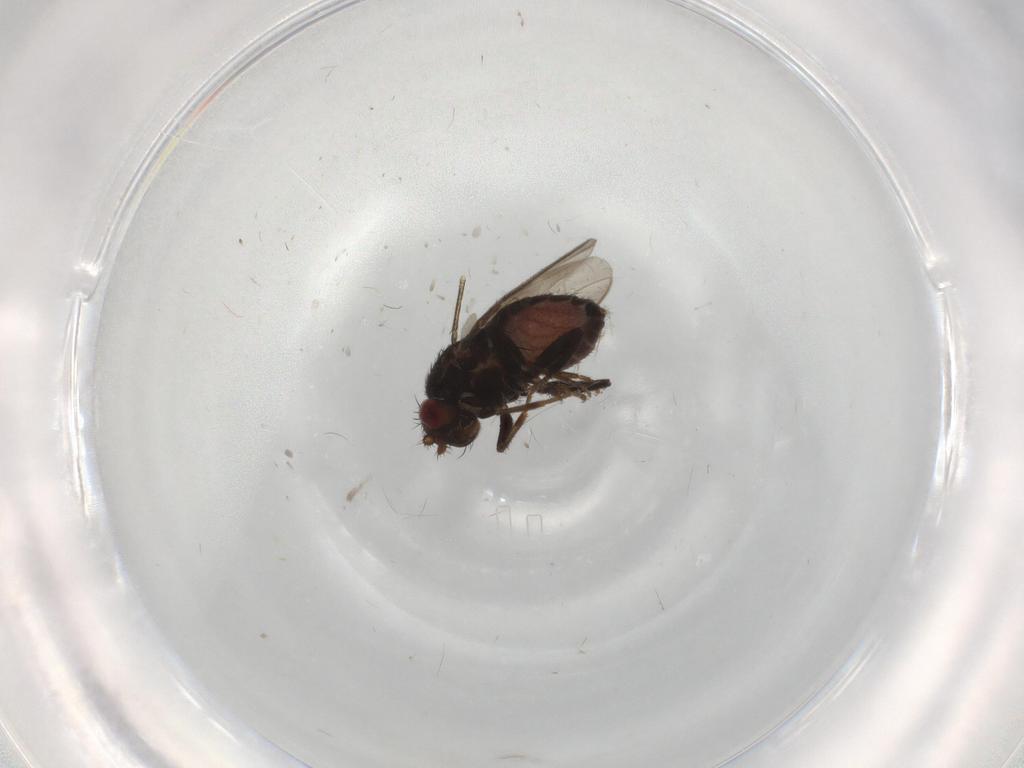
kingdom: Animalia
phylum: Arthropoda
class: Insecta
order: Diptera
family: Sphaeroceridae
